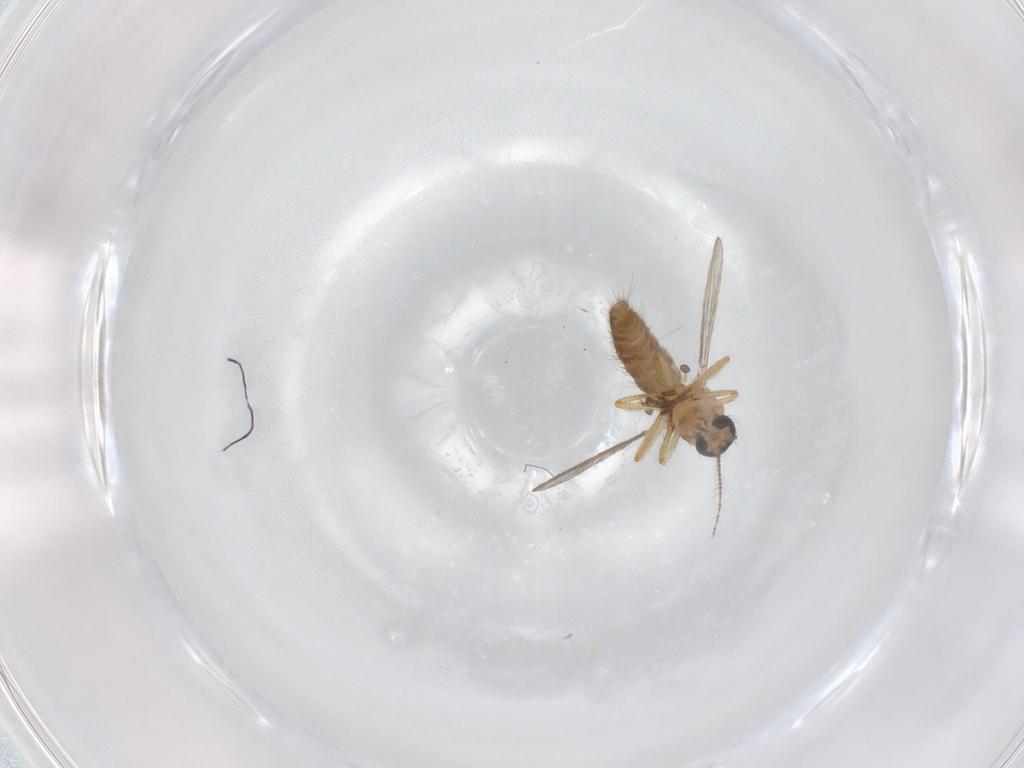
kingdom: Animalia
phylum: Arthropoda
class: Insecta
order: Diptera
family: Ceratopogonidae
